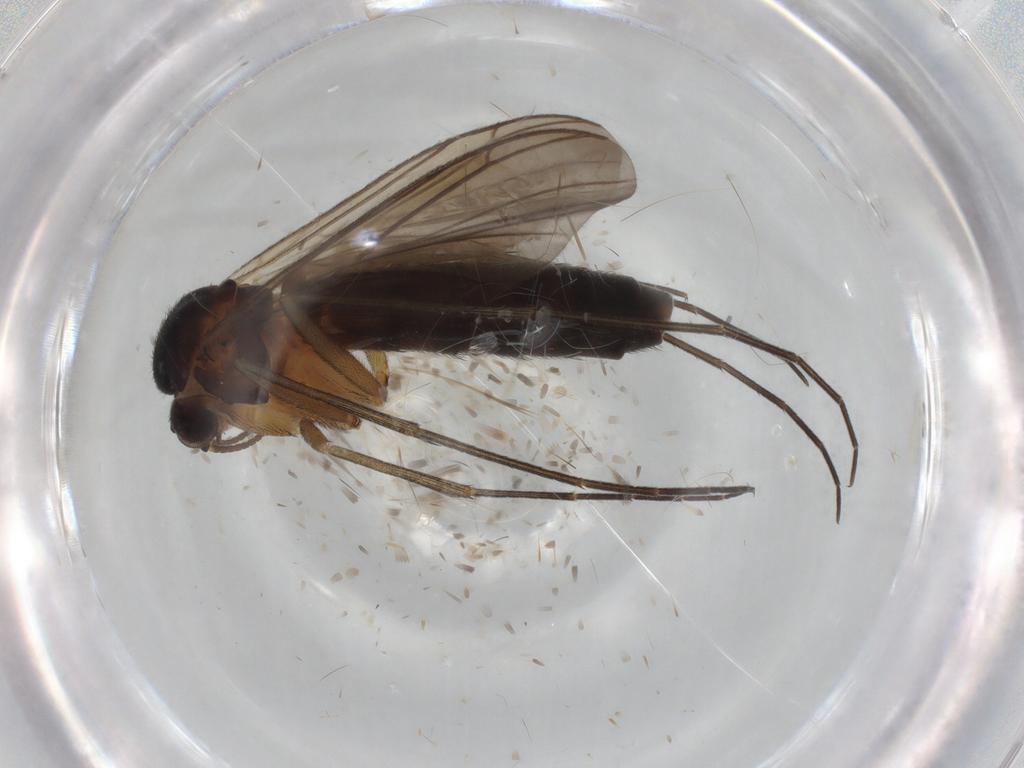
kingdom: Animalia
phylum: Arthropoda
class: Insecta
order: Diptera
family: Keroplatidae
